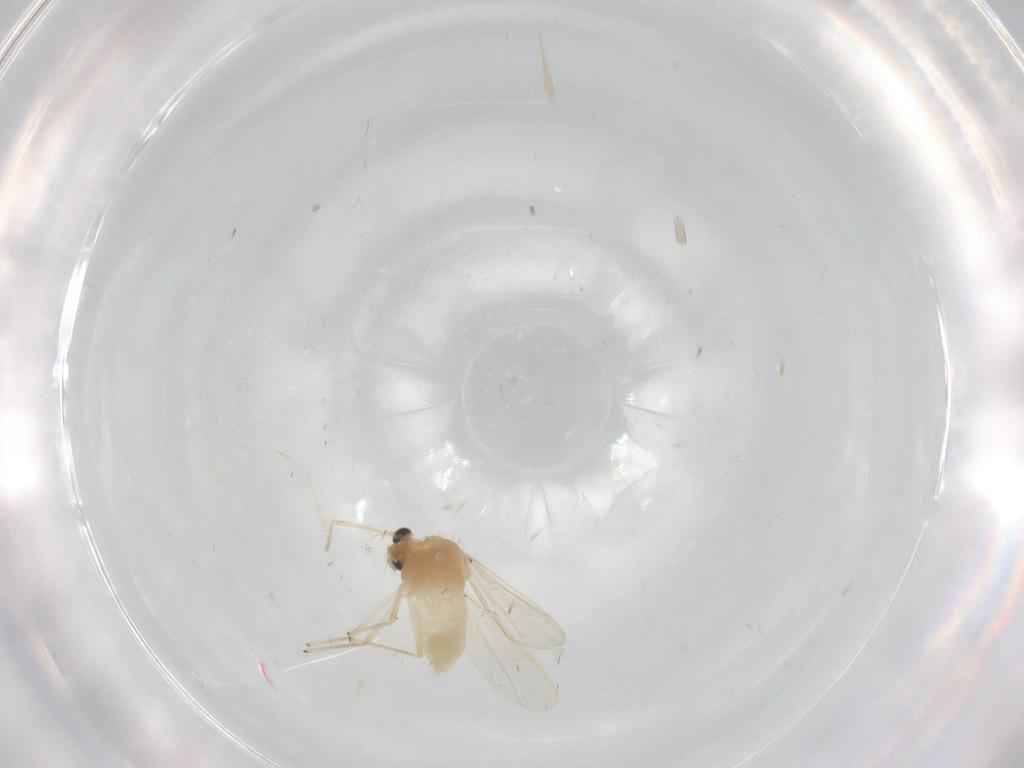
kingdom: Animalia
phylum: Arthropoda
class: Insecta
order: Diptera
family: Chironomidae
